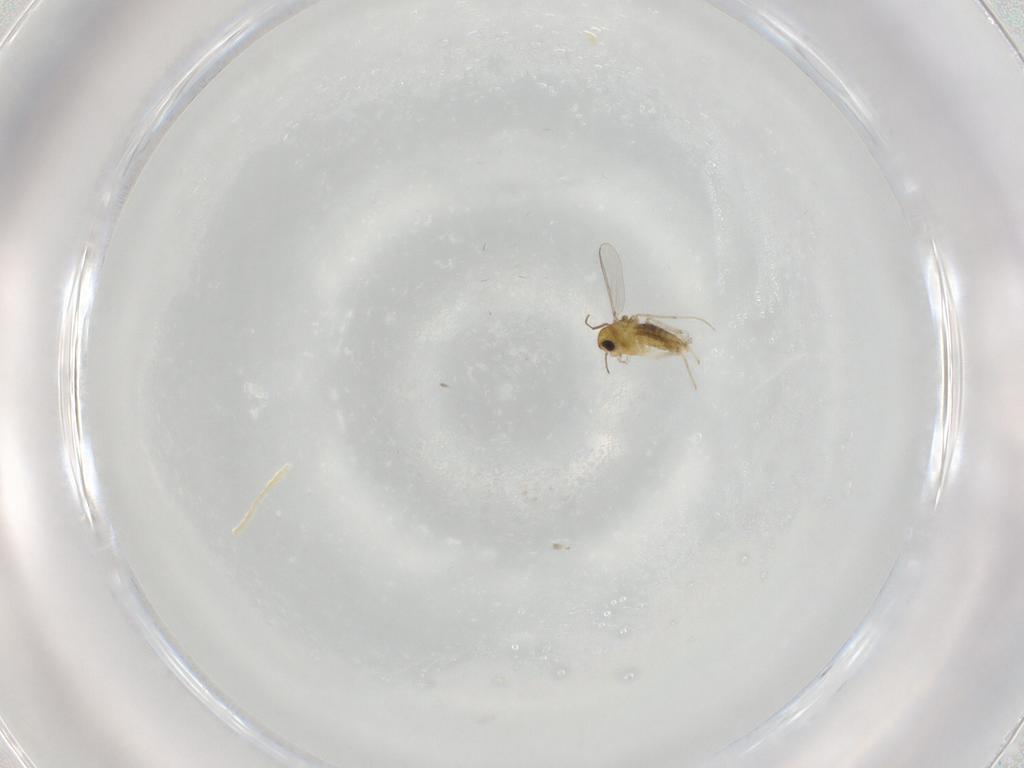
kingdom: Animalia
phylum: Arthropoda
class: Insecta
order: Diptera
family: Chironomidae
